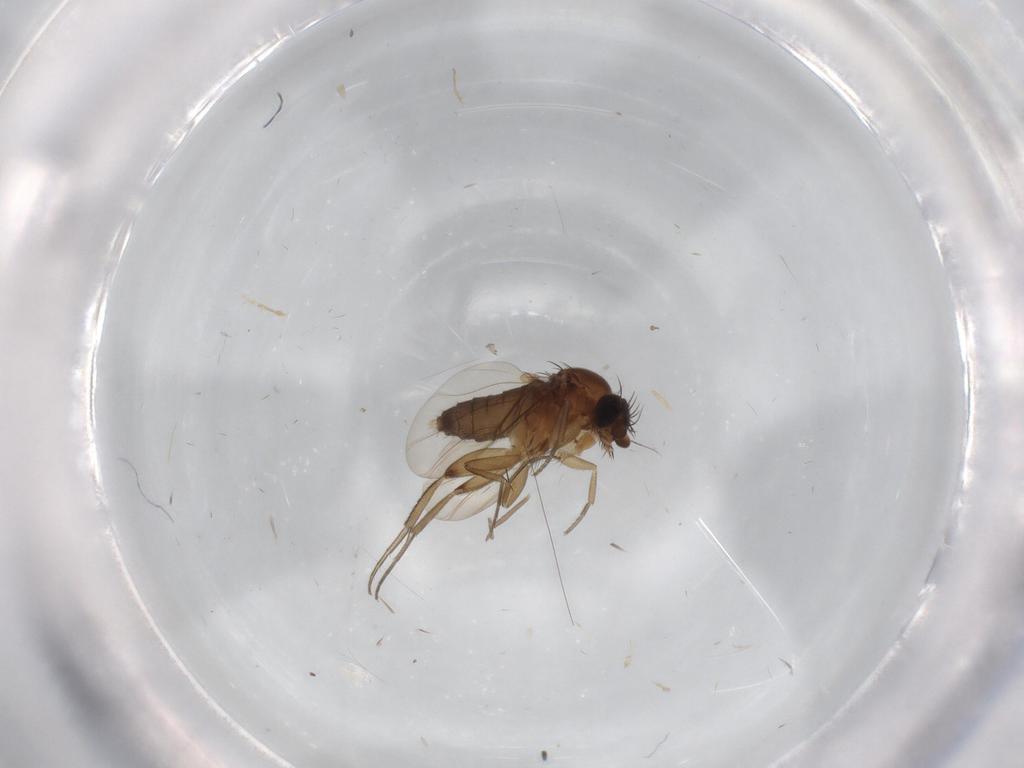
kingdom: Animalia
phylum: Arthropoda
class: Insecta
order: Diptera
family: Phoridae
